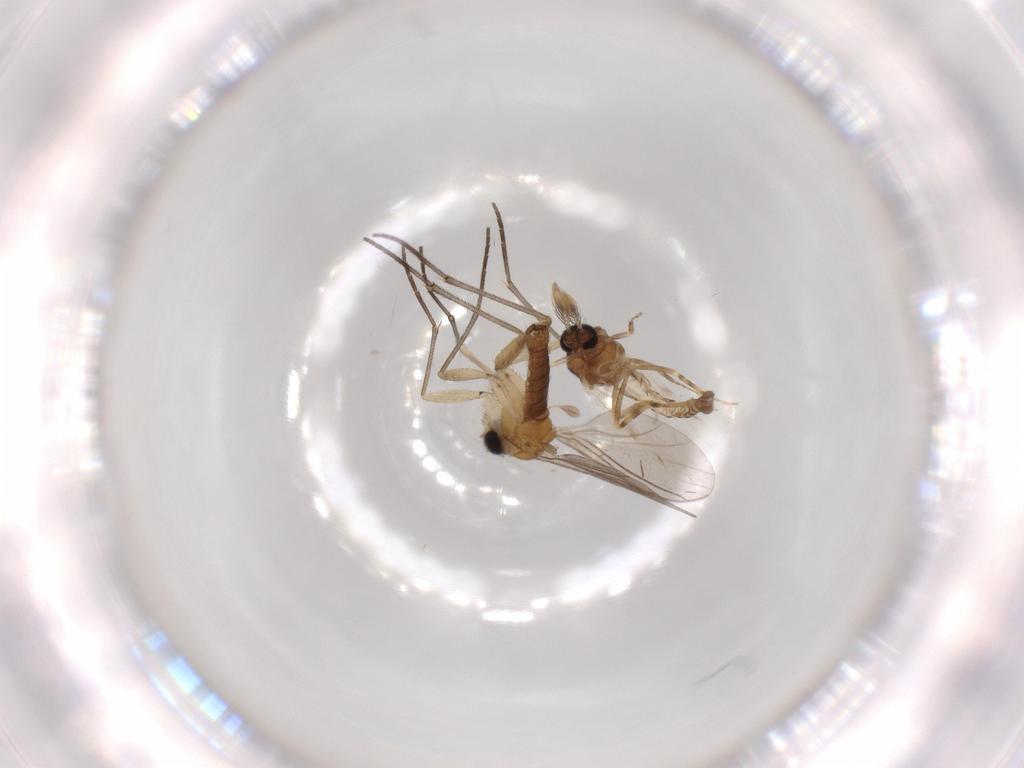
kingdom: Animalia
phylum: Arthropoda
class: Insecta
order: Diptera
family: Ceratopogonidae
